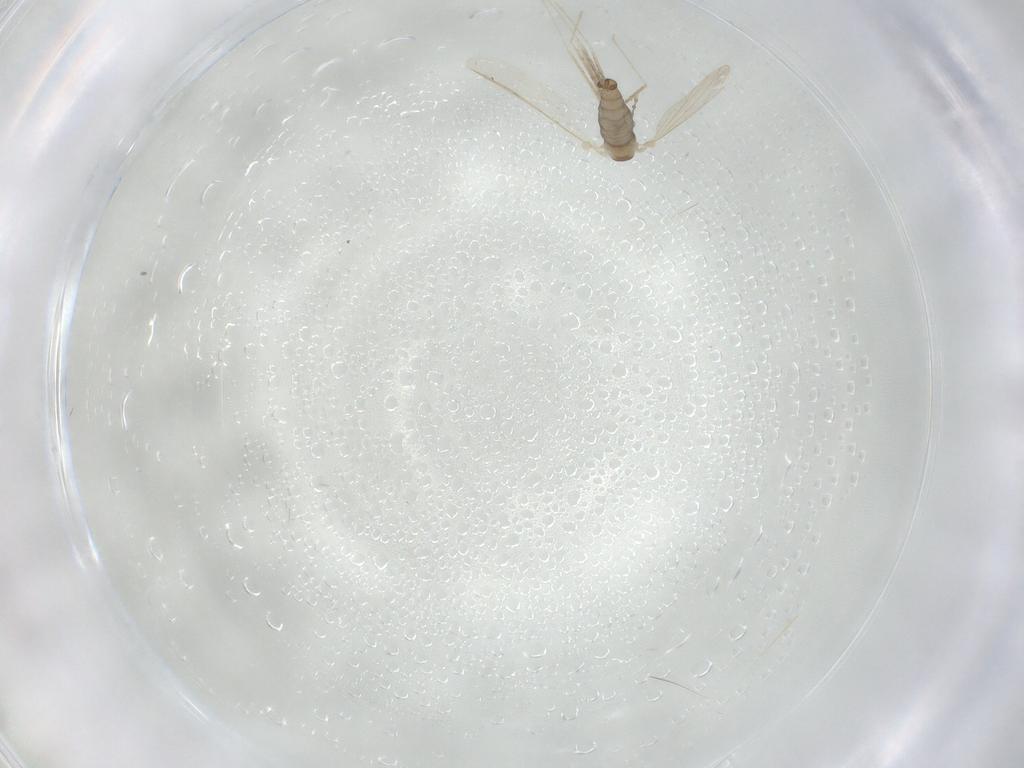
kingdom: Animalia
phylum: Arthropoda
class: Insecta
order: Diptera
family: Cecidomyiidae
